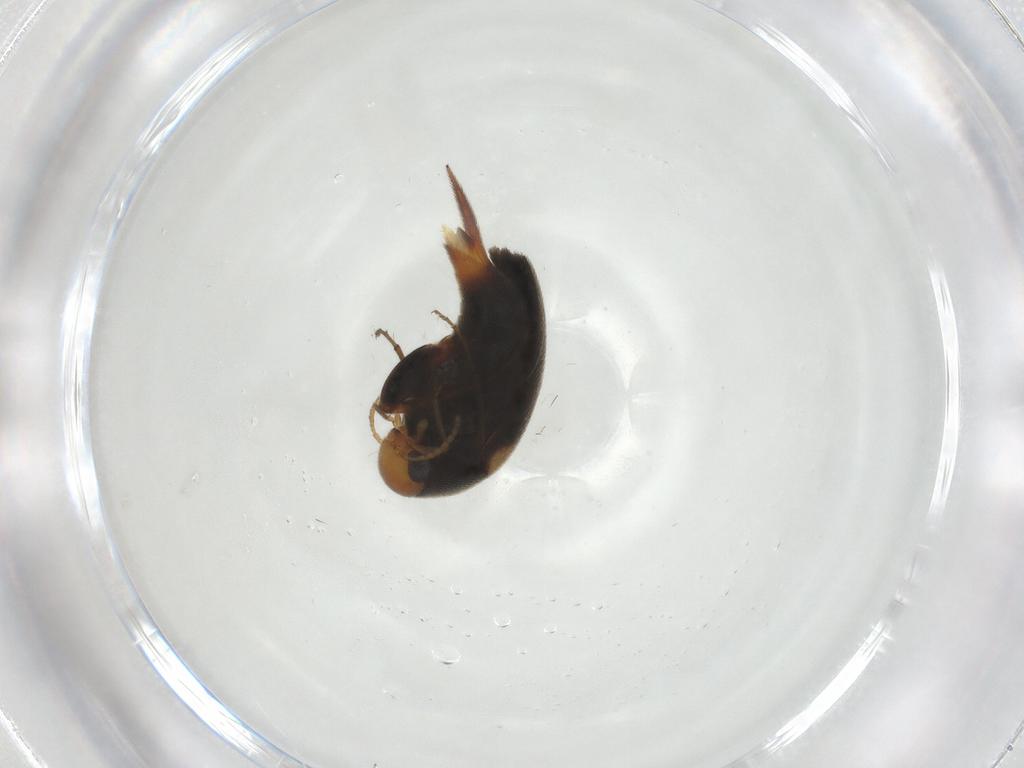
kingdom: Animalia
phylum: Arthropoda
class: Insecta
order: Coleoptera
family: Mordellidae
